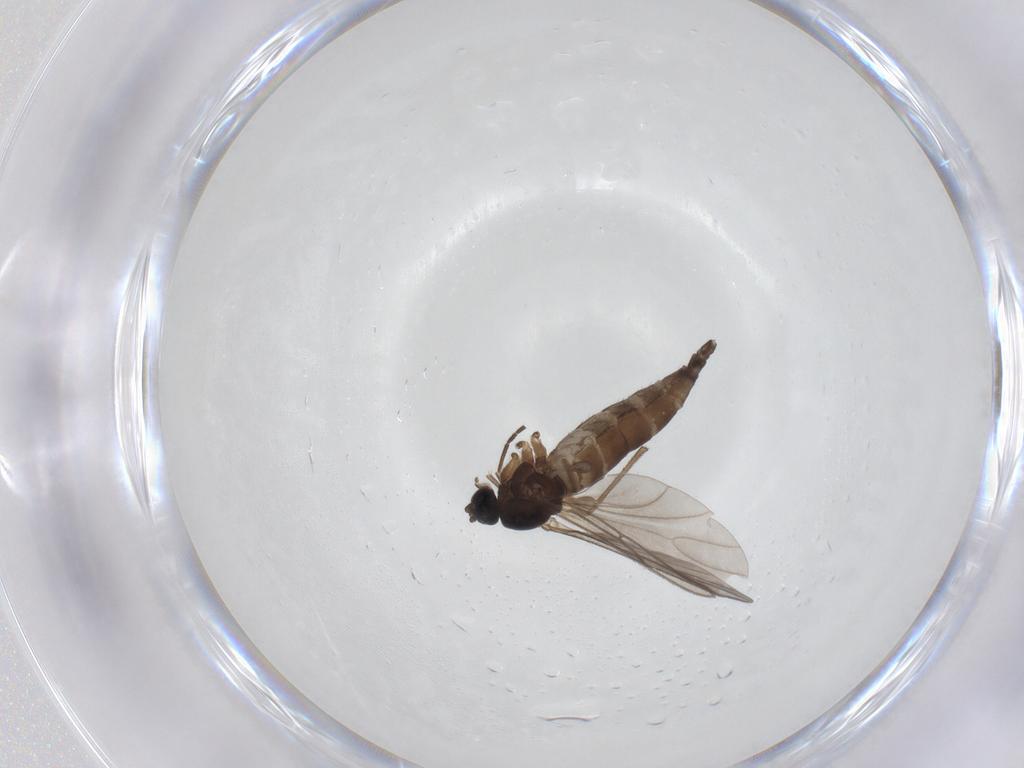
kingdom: Animalia
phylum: Arthropoda
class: Insecta
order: Diptera
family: Sciaridae
